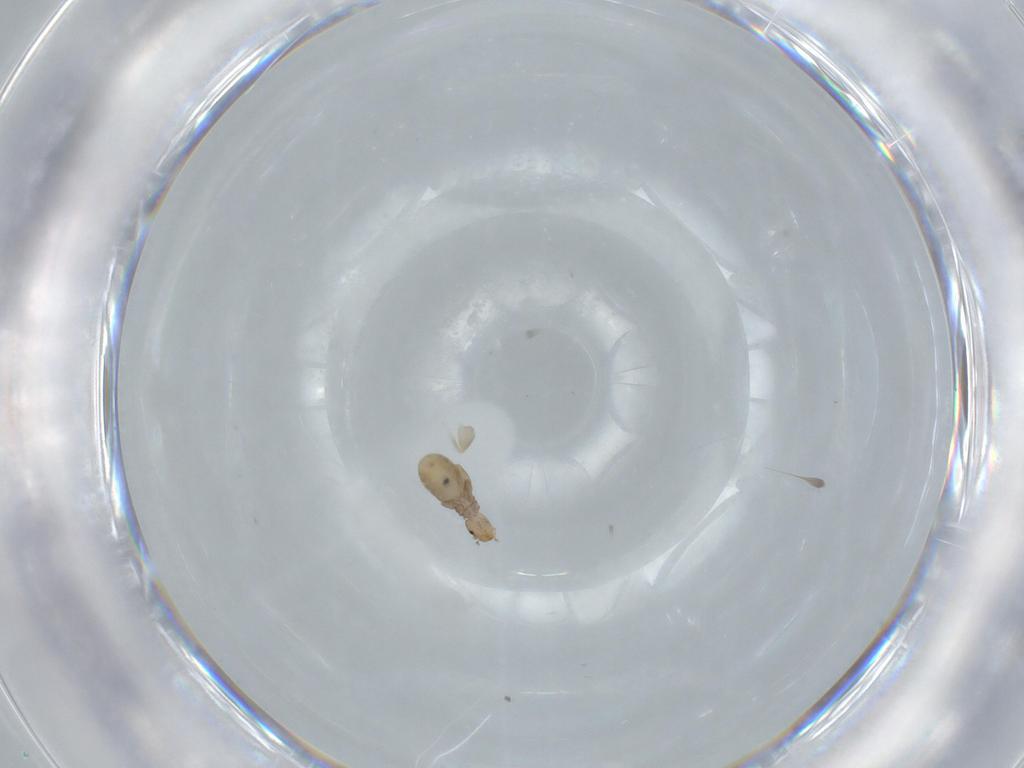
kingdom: Animalia
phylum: Arthropoda
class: Insecta
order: Psocodea
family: Liposcelididae
